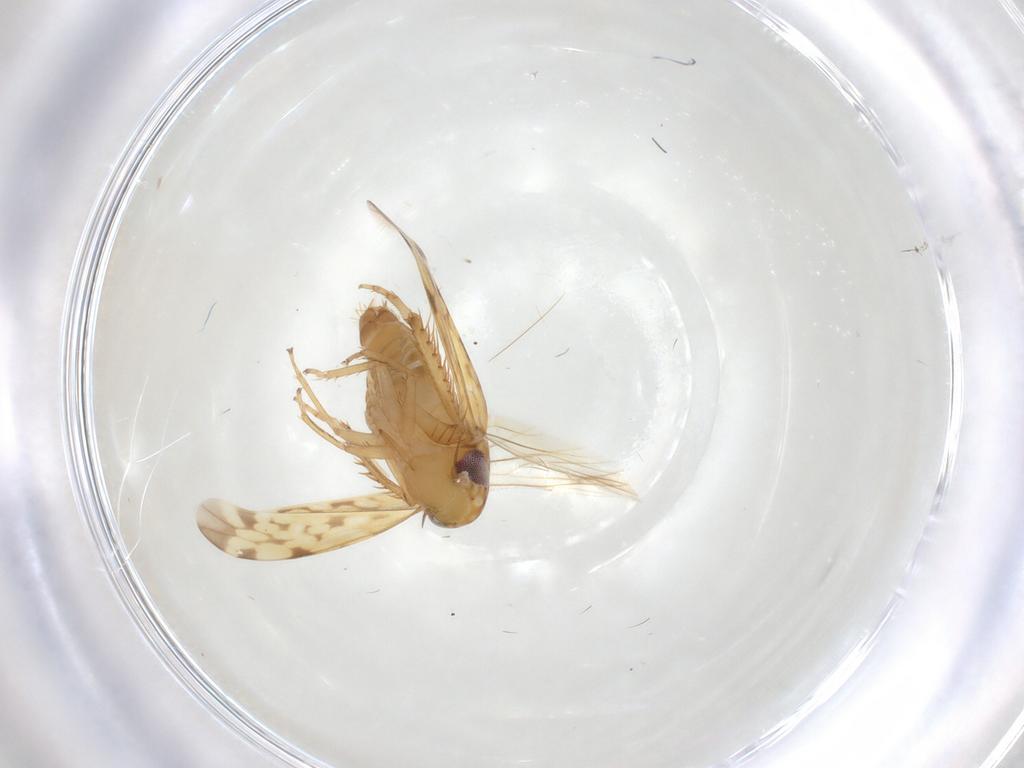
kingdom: Animalia
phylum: Arthropoda
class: Insecta
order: Hemiptera
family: Cicadellidae
